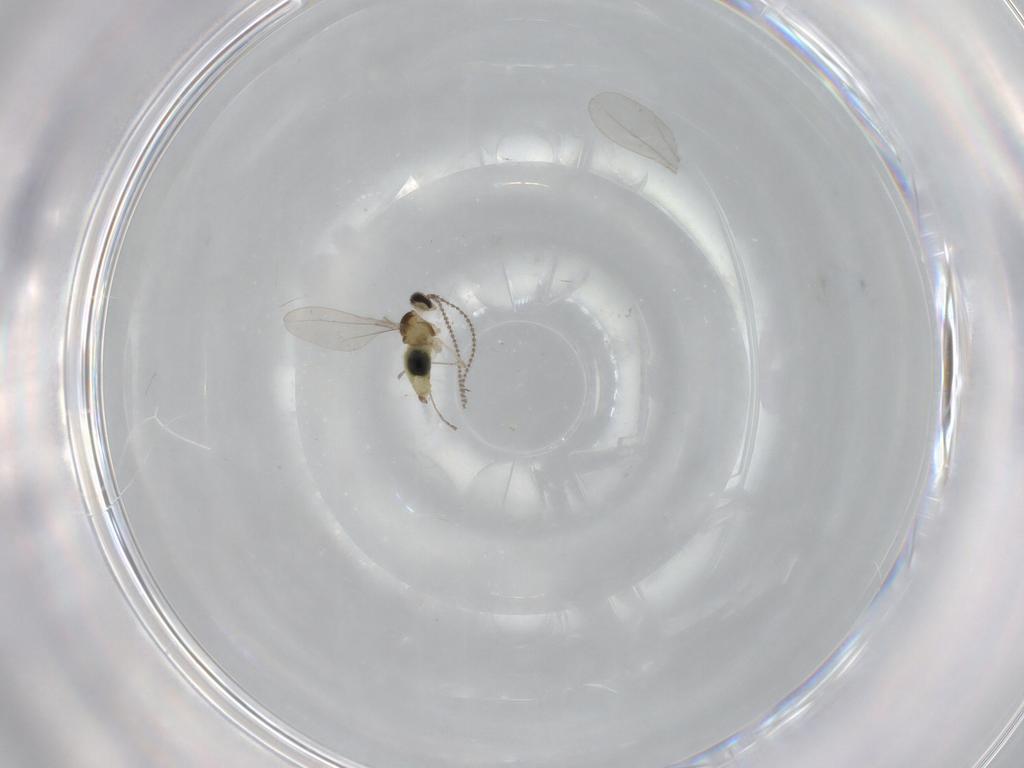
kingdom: Animalia
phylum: Arthropoda
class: Insecta
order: Diptera
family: Cecidomyiidae
